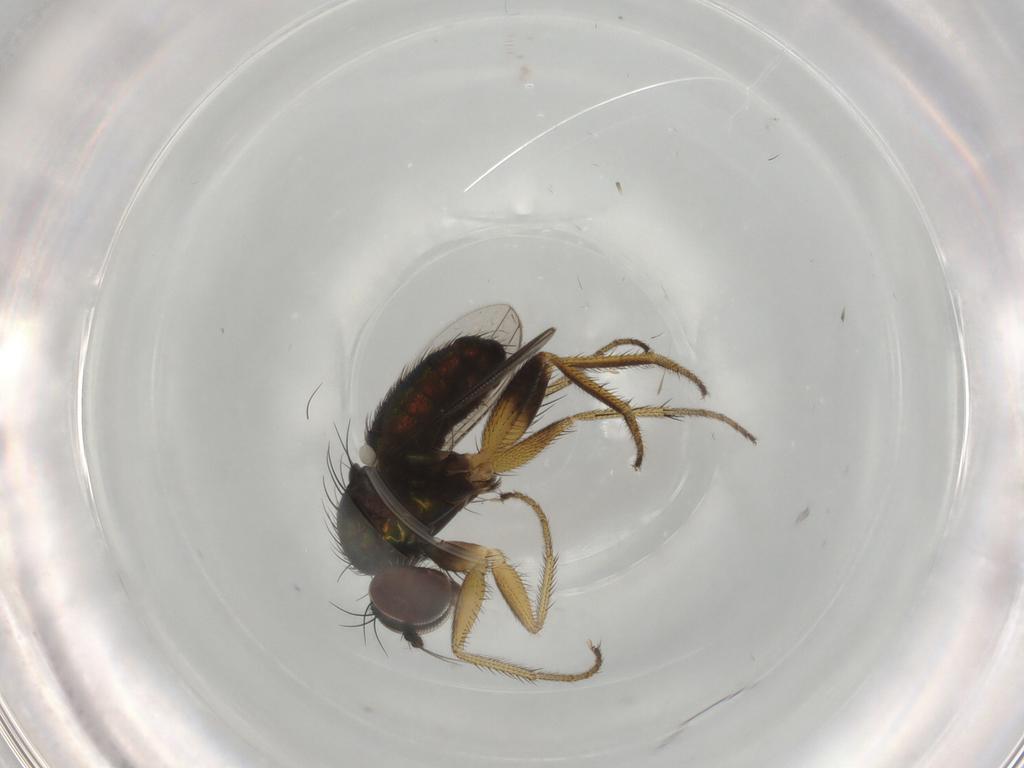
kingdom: Animalia
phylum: Arthropoda
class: Insecta
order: Diptera
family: Dolichopodidae
